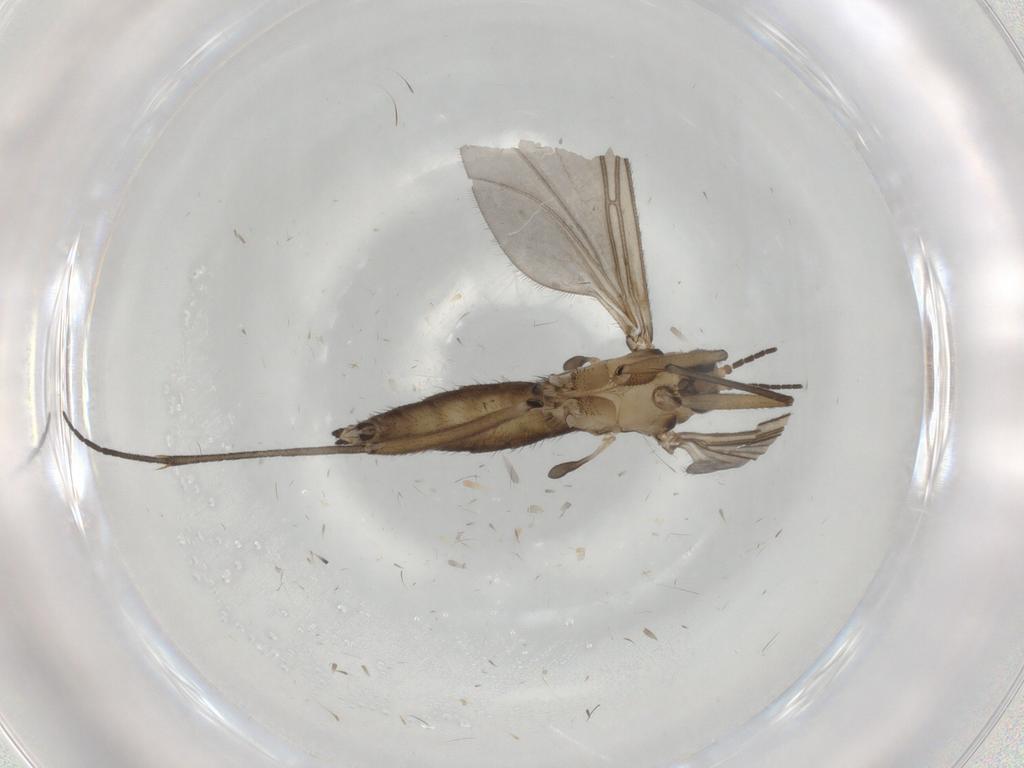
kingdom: Animalia
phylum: Arthropoda
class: Insecta
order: Diptera
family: Sciaridae
